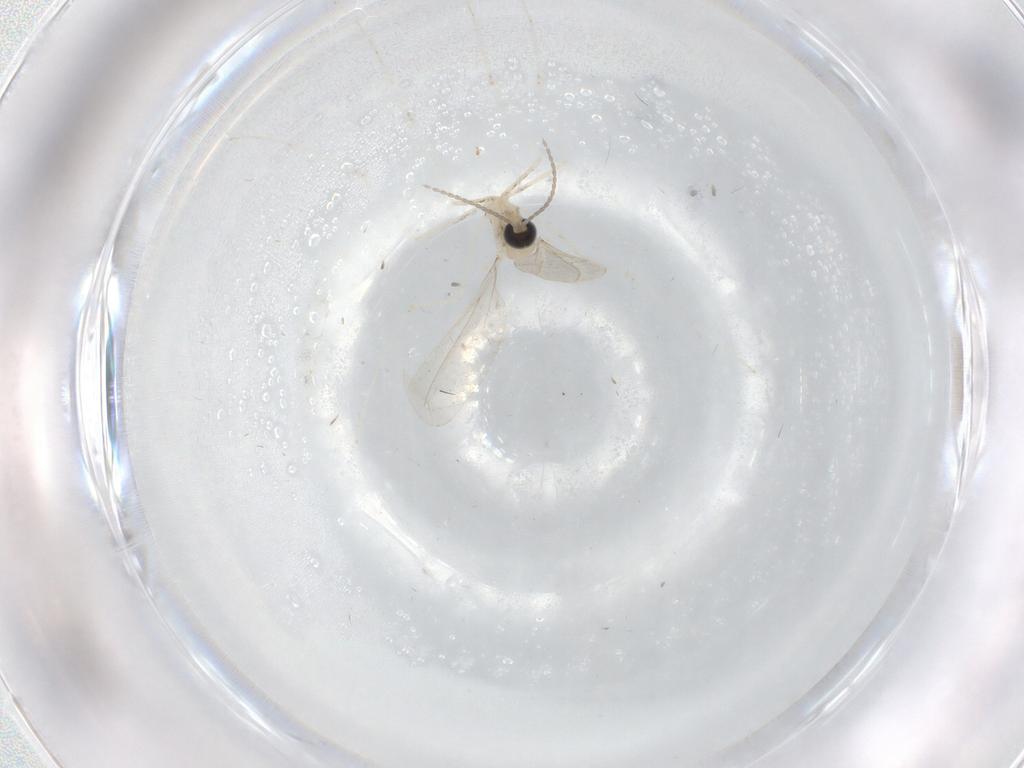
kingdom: Animalia
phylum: Arthropoda
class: Insecta
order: Diptera
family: Cecidomyiidae
